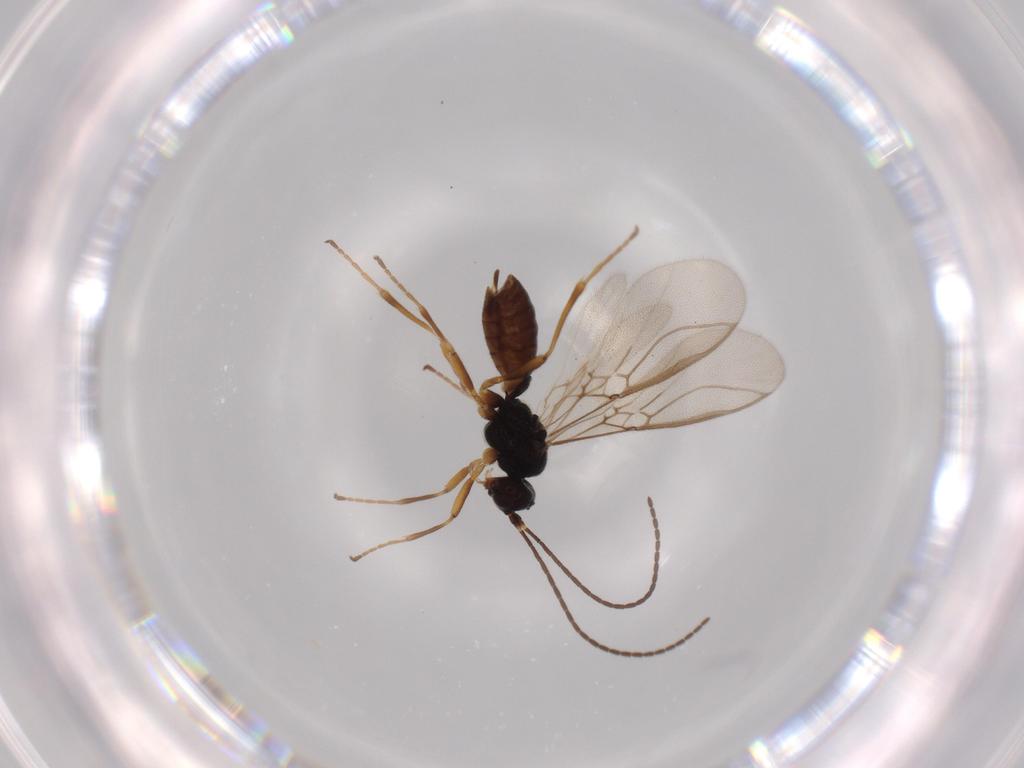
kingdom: Animalia
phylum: Arthropoda
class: Insecta
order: Hymenoptera
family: Braconidae
